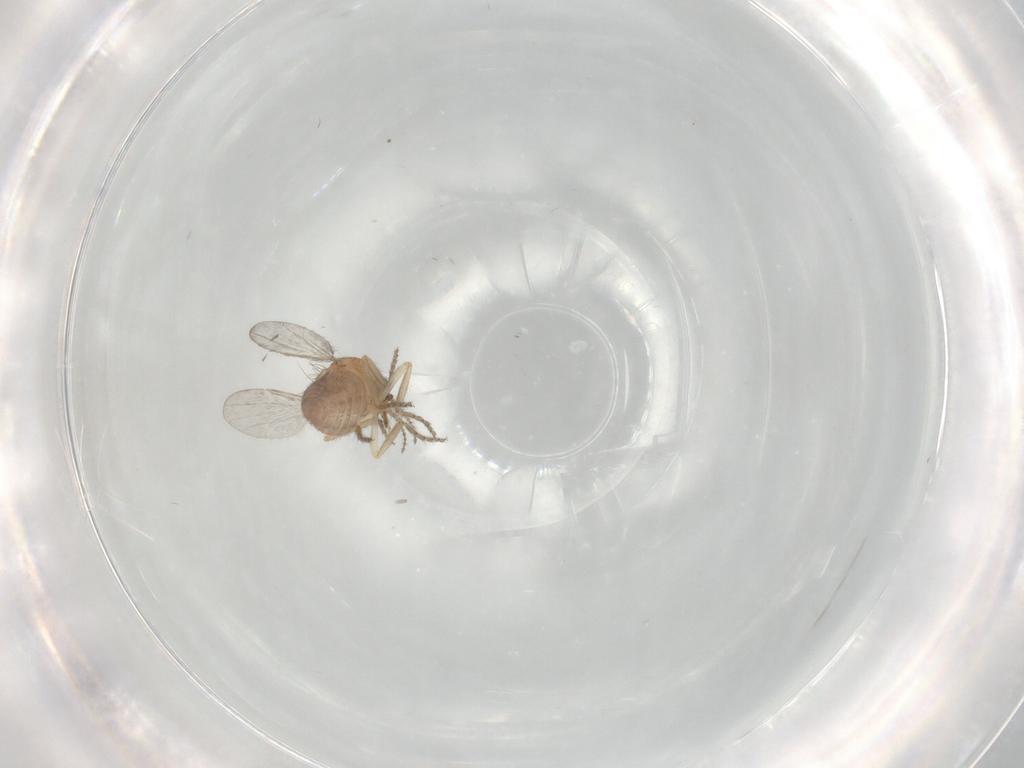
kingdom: Animalia
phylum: Arthropoda
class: Insecta
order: Diptera
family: Ceratopogonidae
